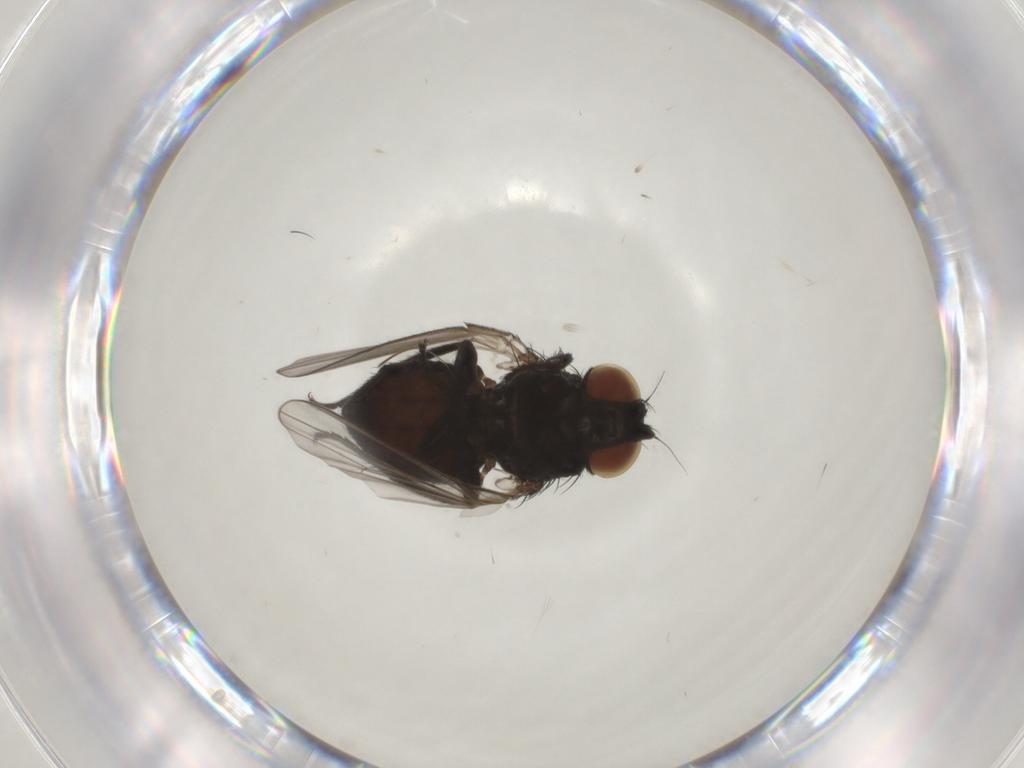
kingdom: Animalia
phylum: Arthropoda
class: Insecta
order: Diptera
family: Milichiidae
